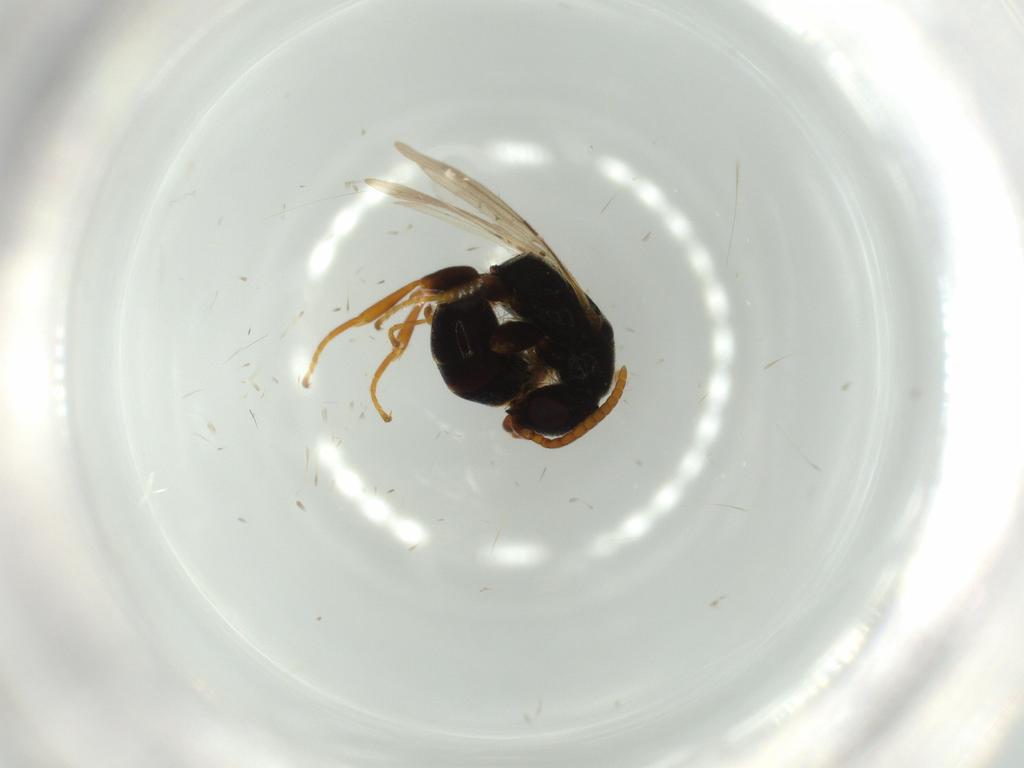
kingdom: Animalia
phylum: Arthropoda
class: Insecta
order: Hymenoptera
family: Bethylidae
